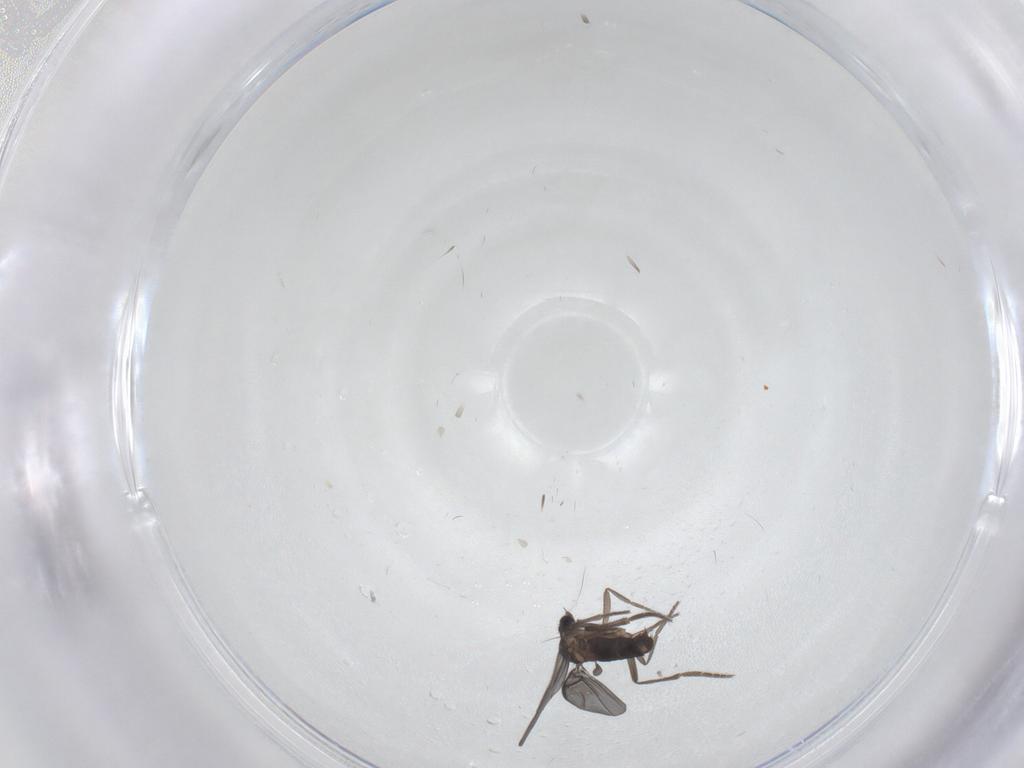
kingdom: Animalia
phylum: Arthropoda
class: Insecta
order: Diptera
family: Phoridae
